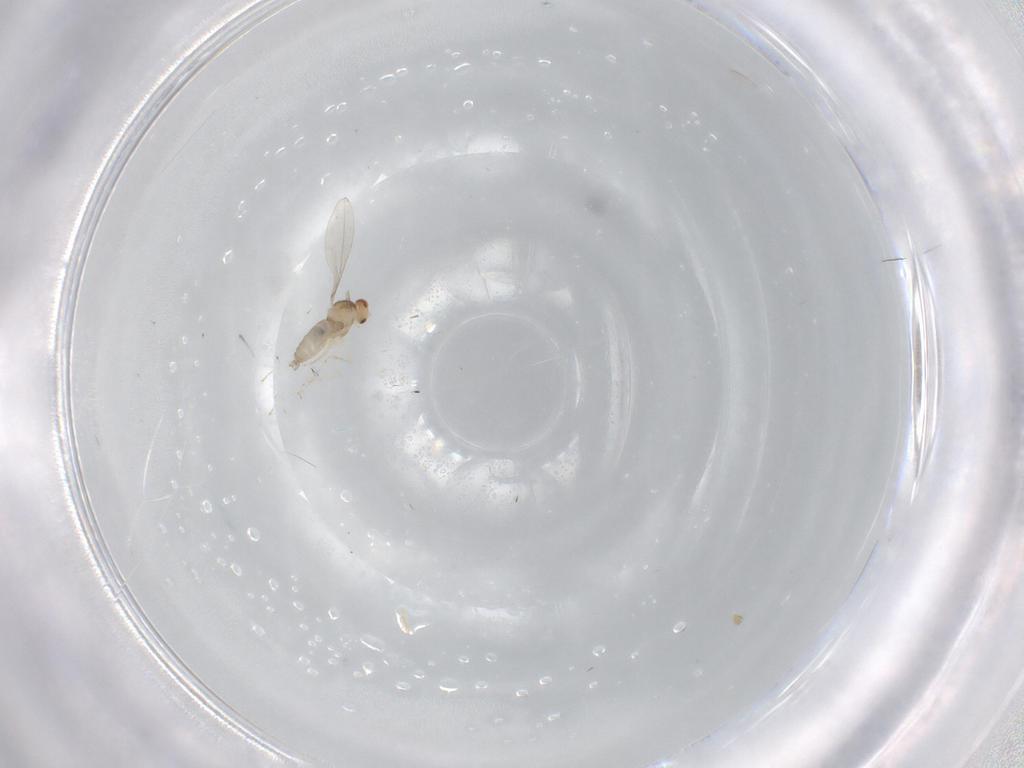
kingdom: Animalia
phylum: Arthropoda
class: Insecta
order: Diptera
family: Cecidomyiidae
